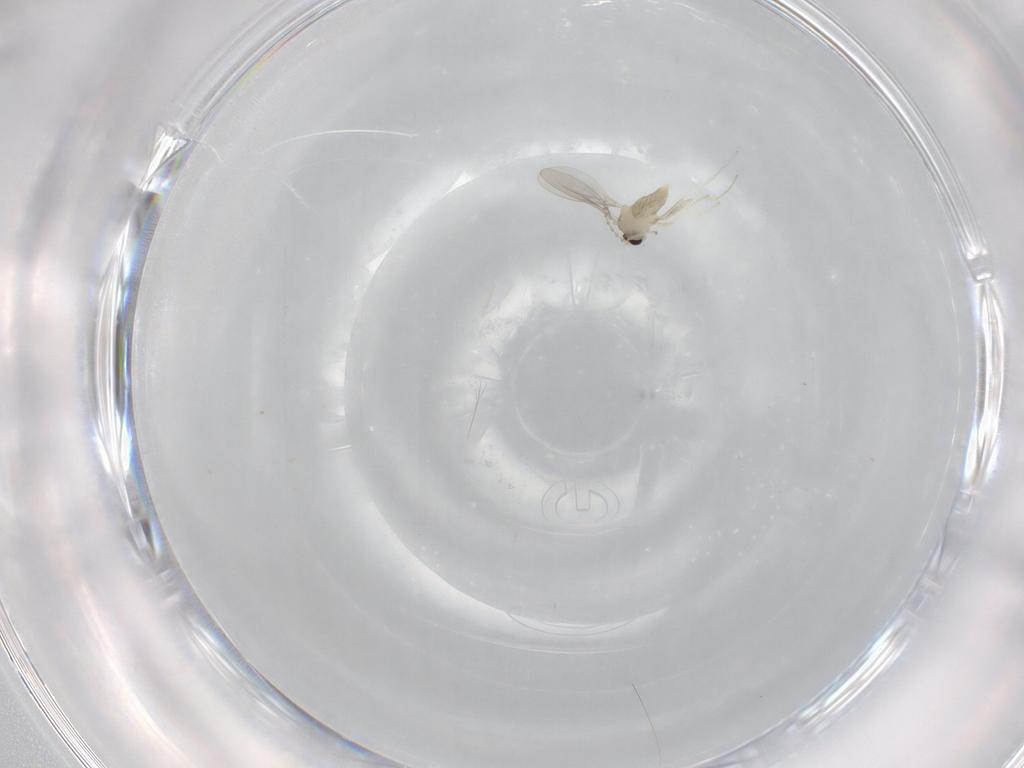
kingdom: Animalia
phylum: Arthropoda
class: Insecta
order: Diptera
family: Cecidomyiidae
